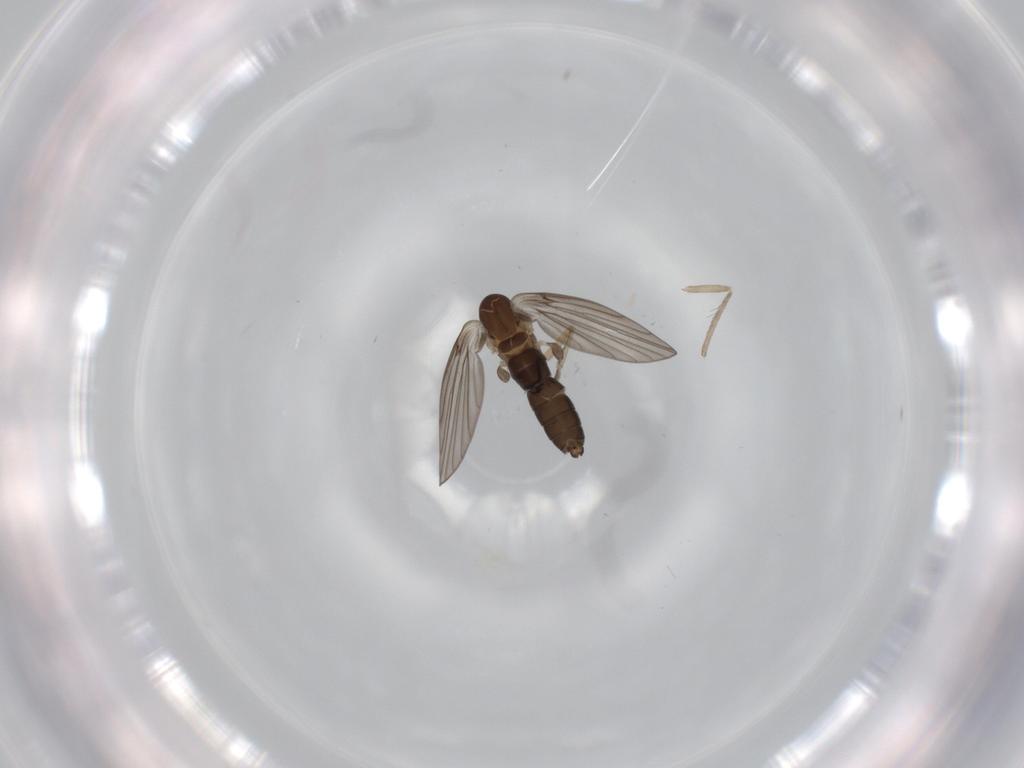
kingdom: Animalia
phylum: Arthropoda
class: Insecta
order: Diptera
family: Psychodidae
